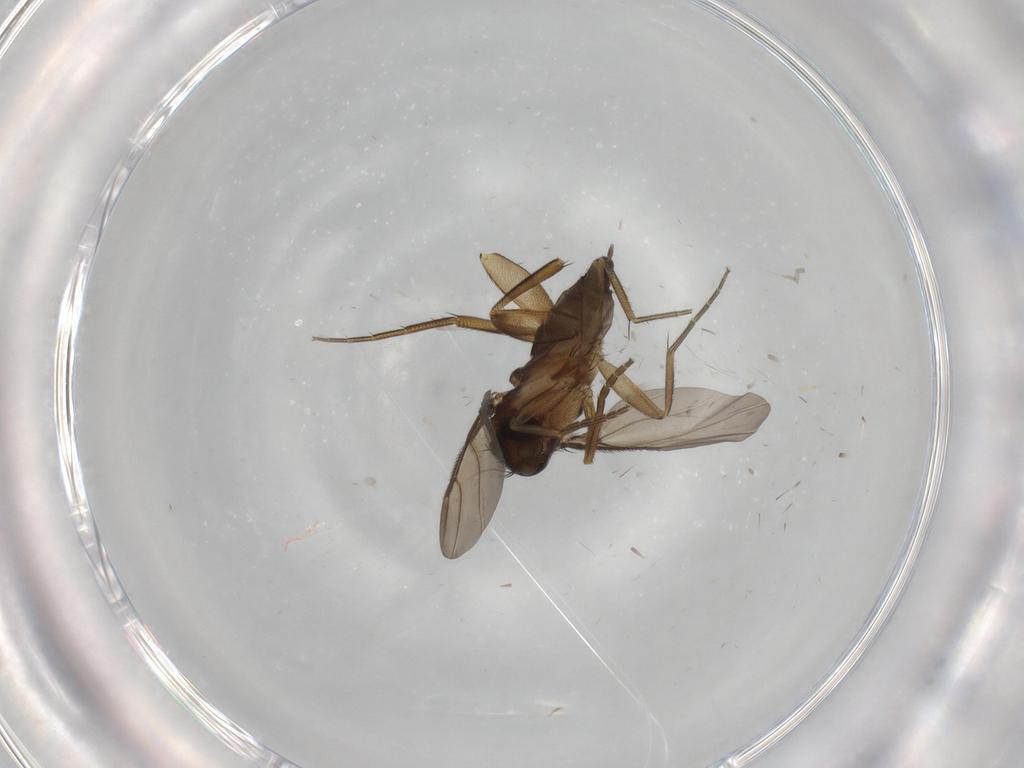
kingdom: Animalia
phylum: Arthropoda
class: Insecta
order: Diptera
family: Phoridae
